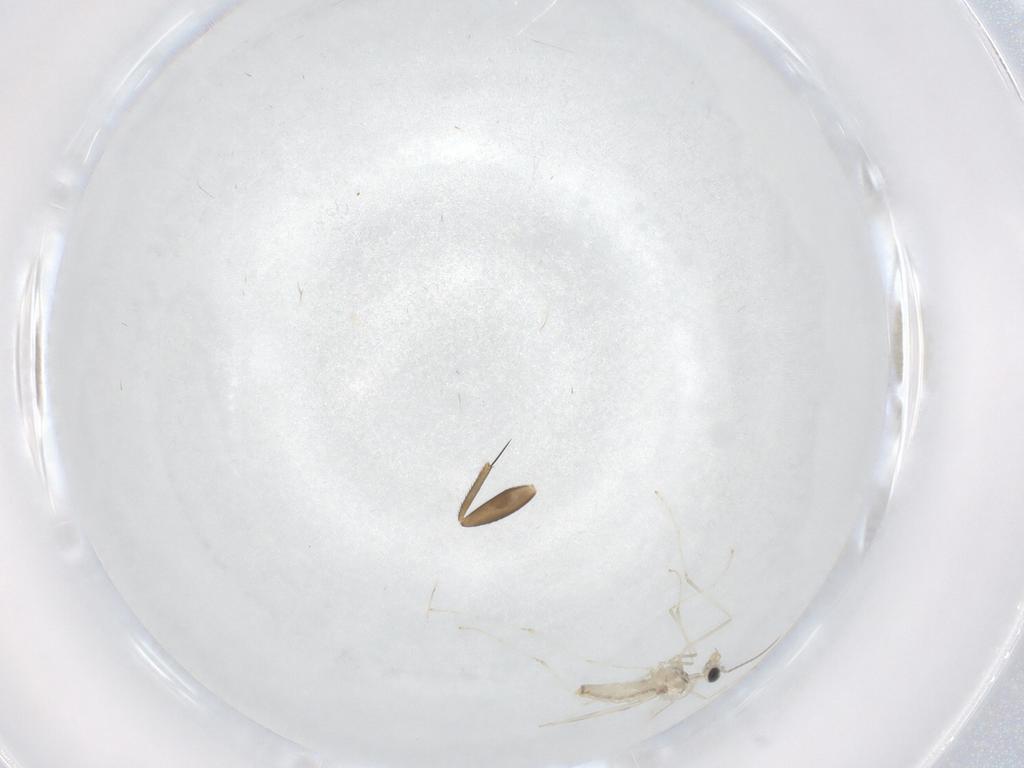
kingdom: Animalia
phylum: Arthropoda
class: Insecta
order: Diptera
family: Cecidomyiidae
